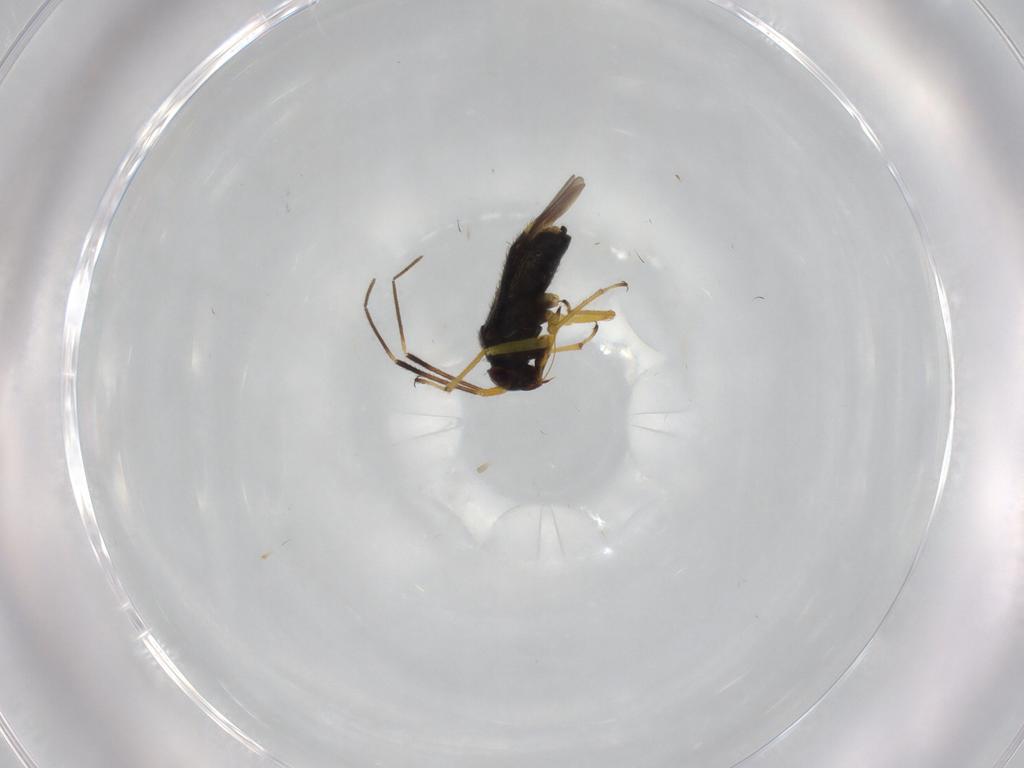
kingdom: Animalia
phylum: Arthropoda
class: Insecta
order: Hemiptera
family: Miridae
